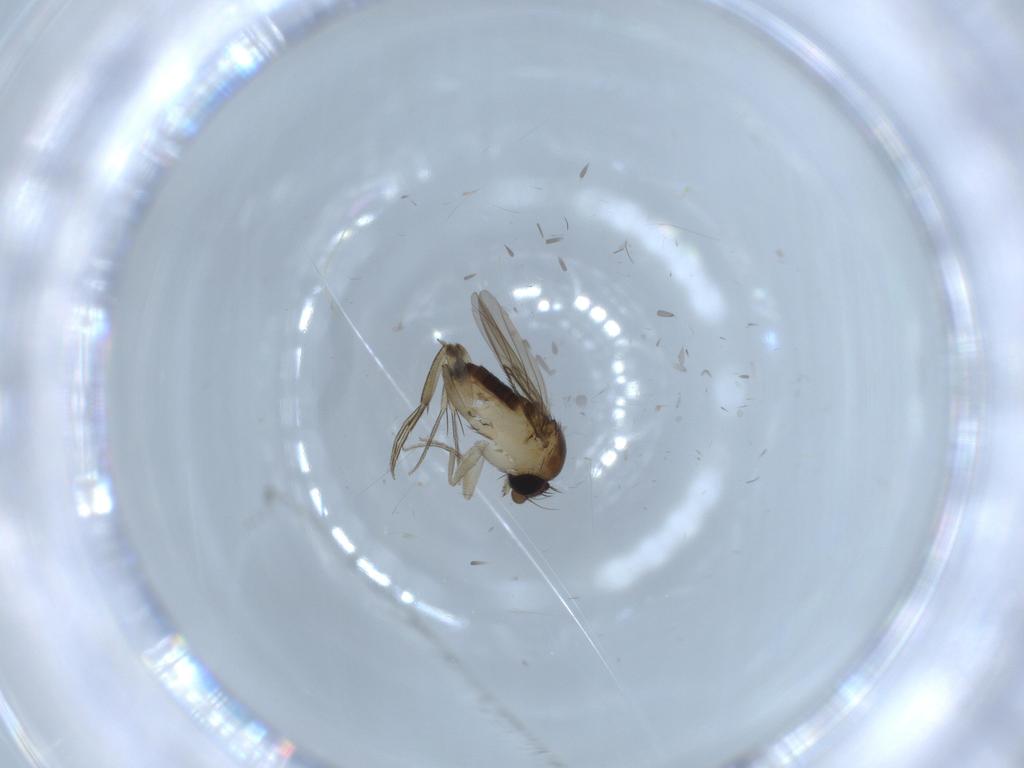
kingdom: Animalia
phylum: Arthropoda
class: Insecta
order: Diptera
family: Phoridae
